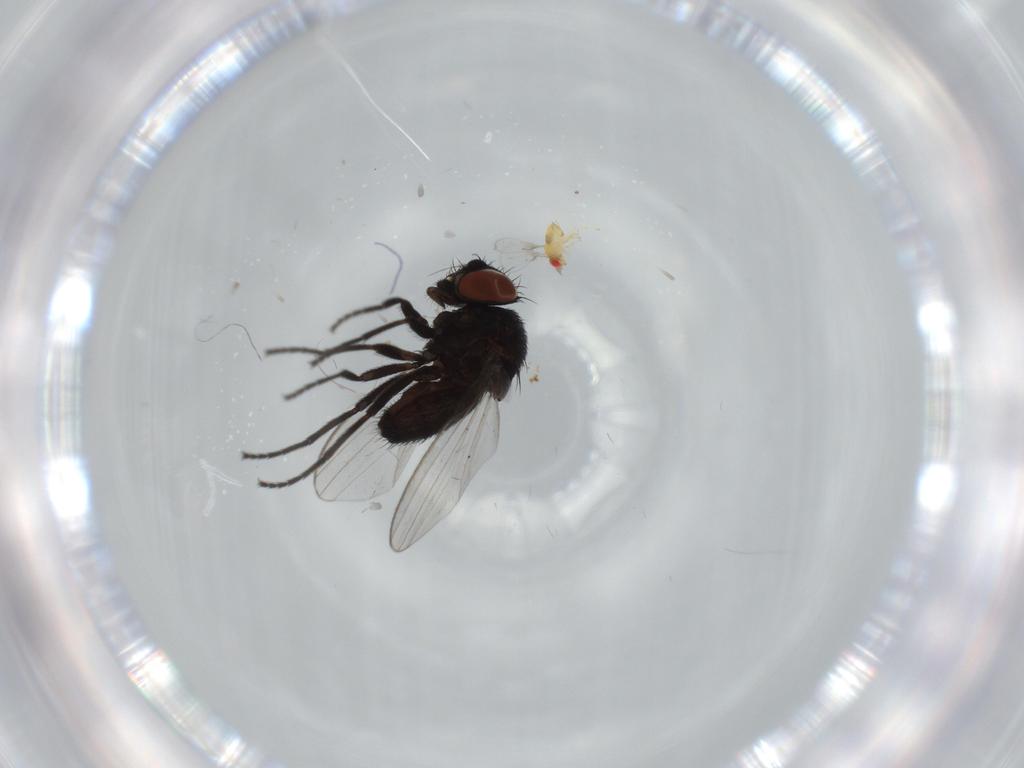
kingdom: Animalia
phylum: Arthropoda
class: Insecta
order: Diptera
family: Milichiidae
